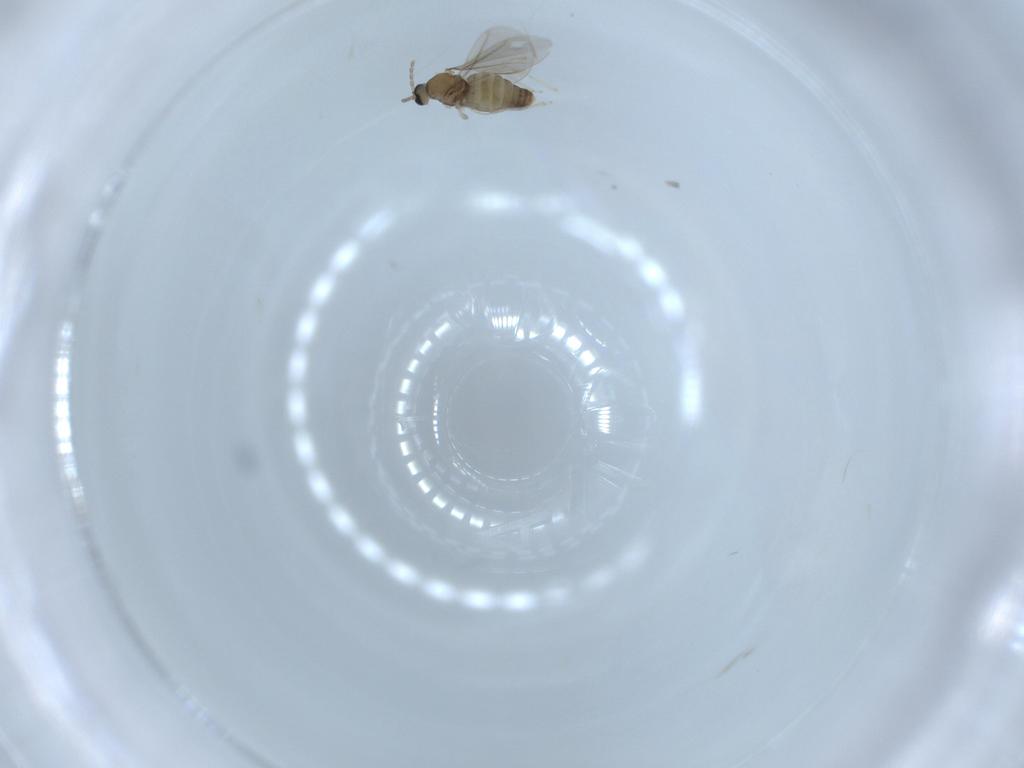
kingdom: Animalia
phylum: Arthropoda
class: Insecta
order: Diptera
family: Cecidomyiidae
